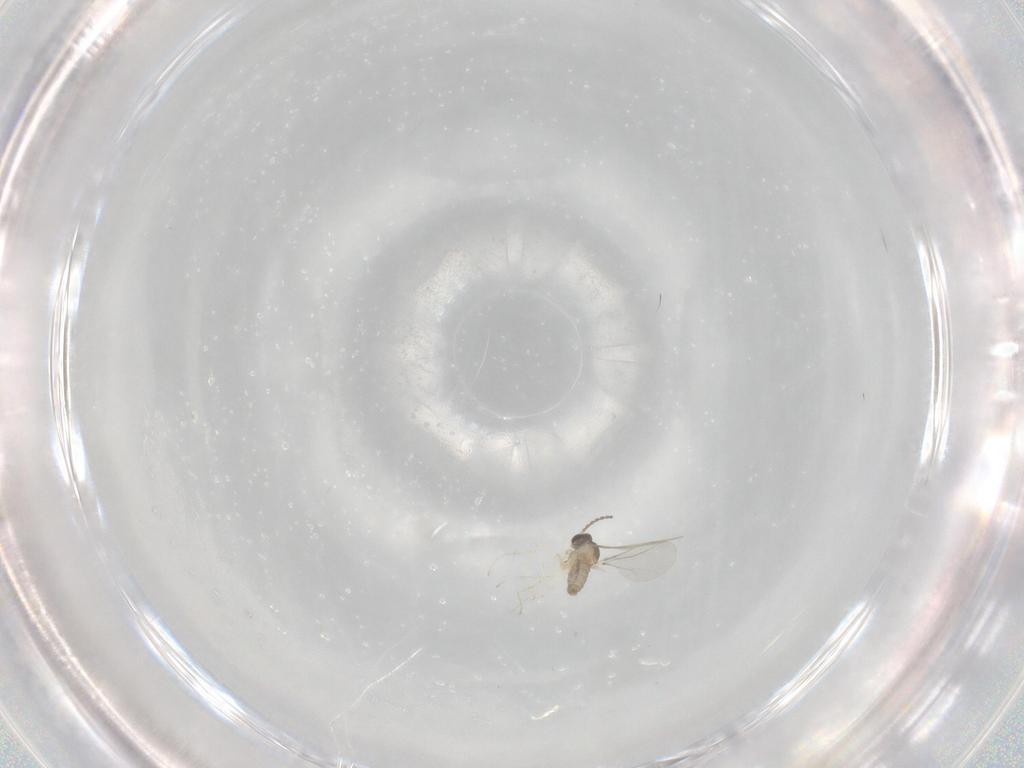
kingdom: Animalia
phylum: Arthropoda
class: Insecta
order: Diptera
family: Cecidomyiidae
